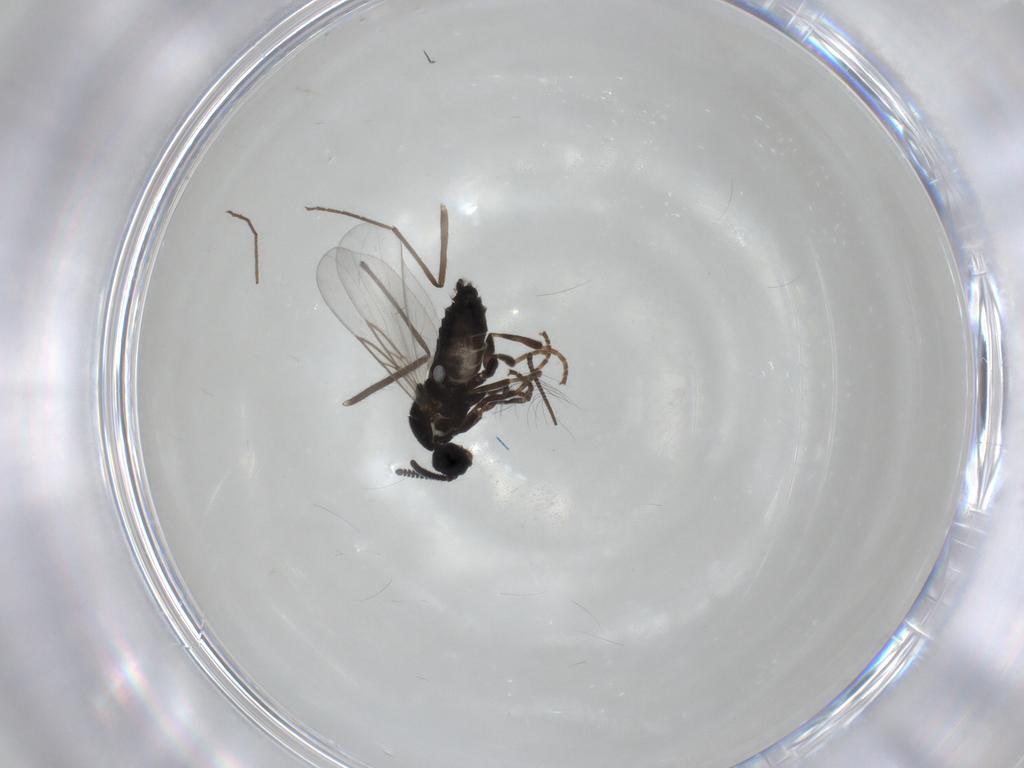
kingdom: Animalia
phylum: Arthropoda
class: Insecta
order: Diptera
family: Scatopsidae
